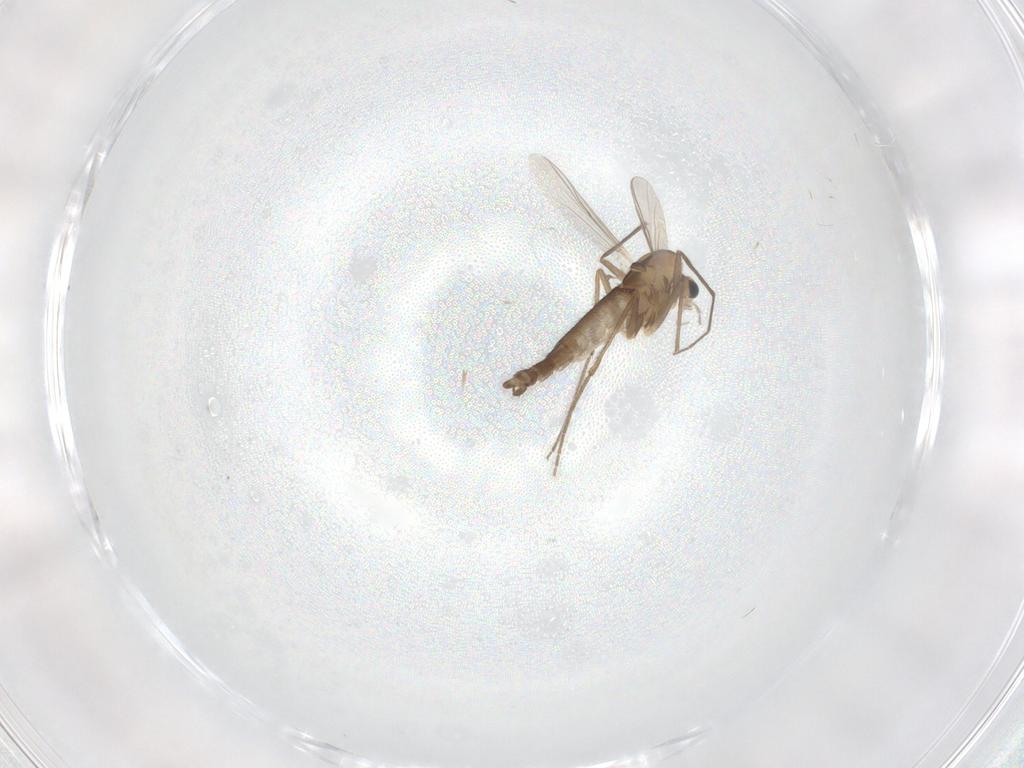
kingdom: Animalia
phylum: Arthropoda
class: Insecta
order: Diptera
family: Chironomidae
